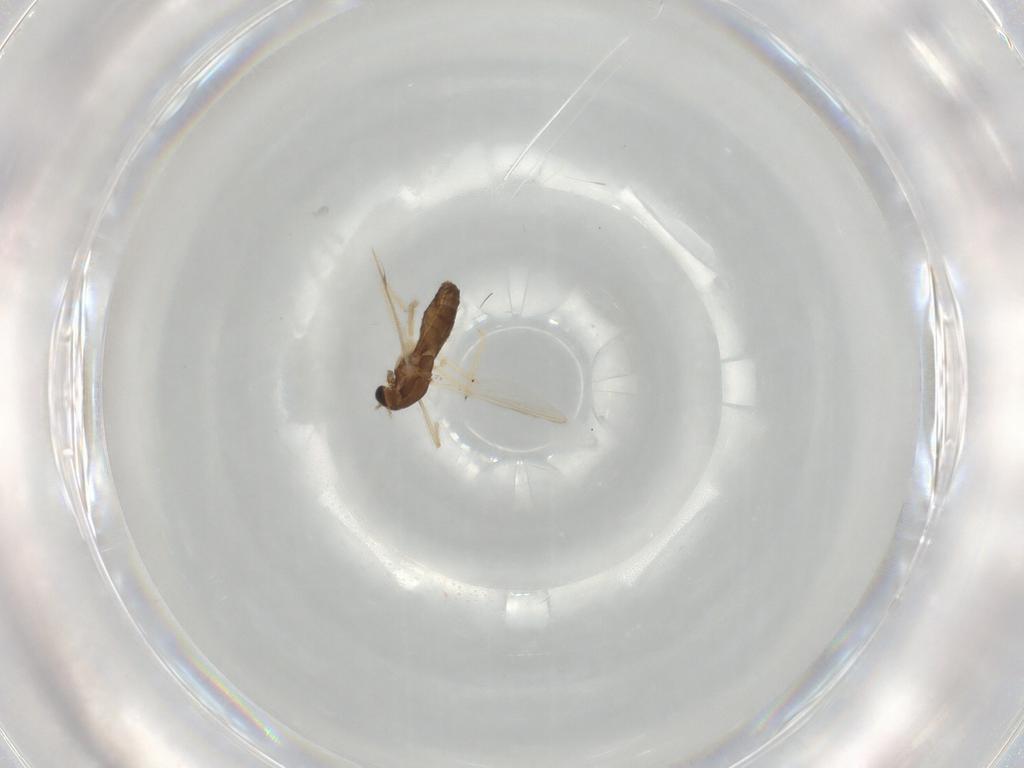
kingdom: Animalia
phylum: Arthropoda
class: Insecta
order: Diptera
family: Chironomidae
